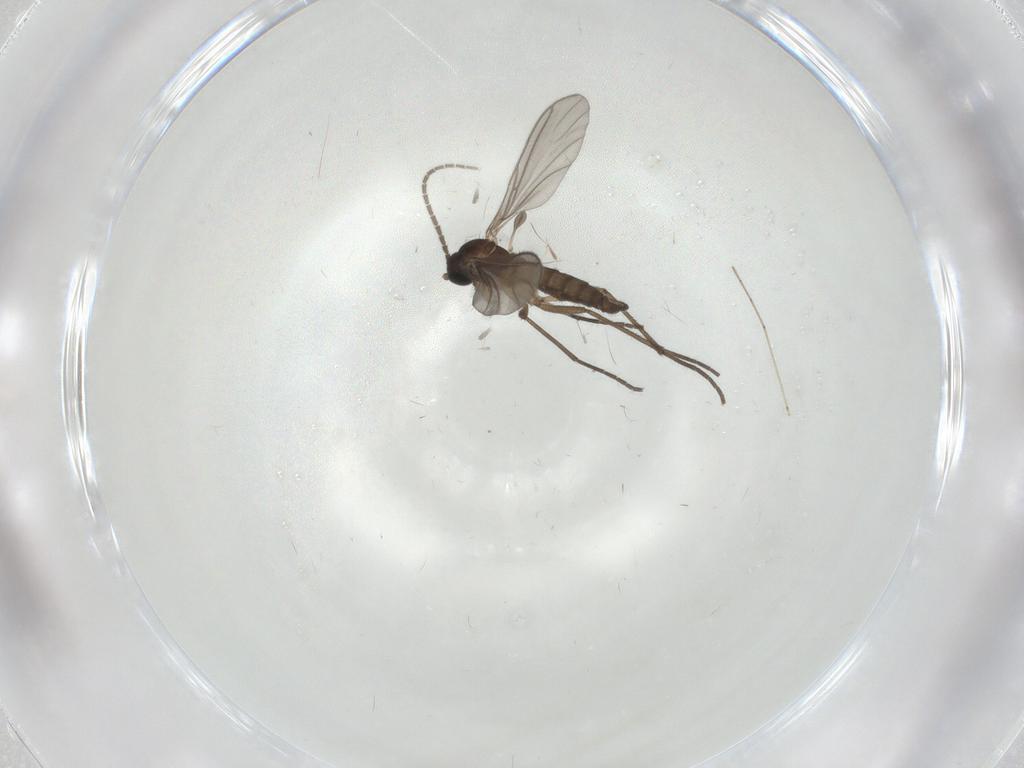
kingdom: Animalia
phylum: Arthropoda
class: Insecta
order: Diptera
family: Sciaridae
